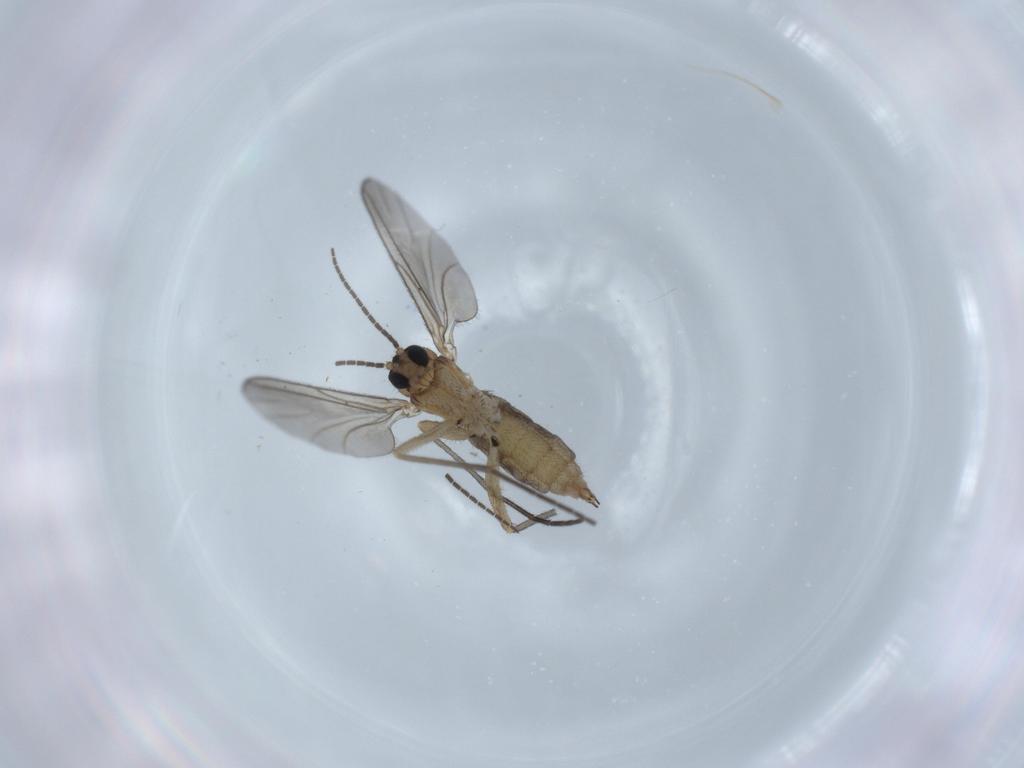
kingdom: Animalia
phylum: Arthropoda
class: Insecta
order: Diptera
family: Sciaridae
